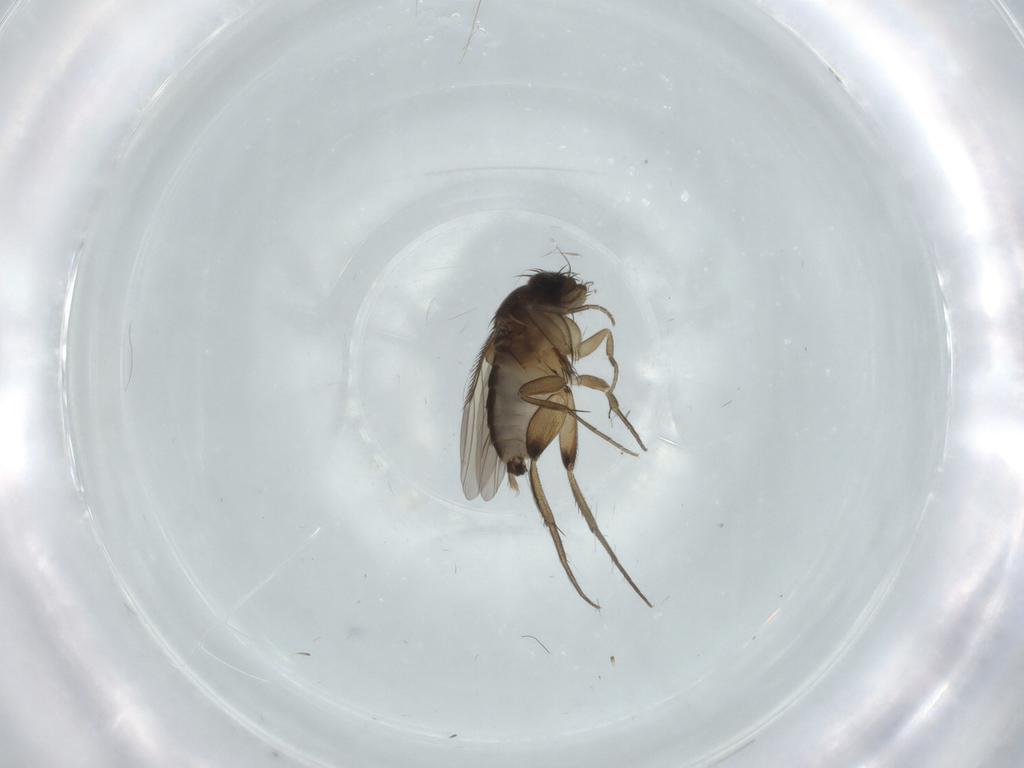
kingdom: Animalia
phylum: Arthropoda
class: Insecta
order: Diptera
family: Phoridae
